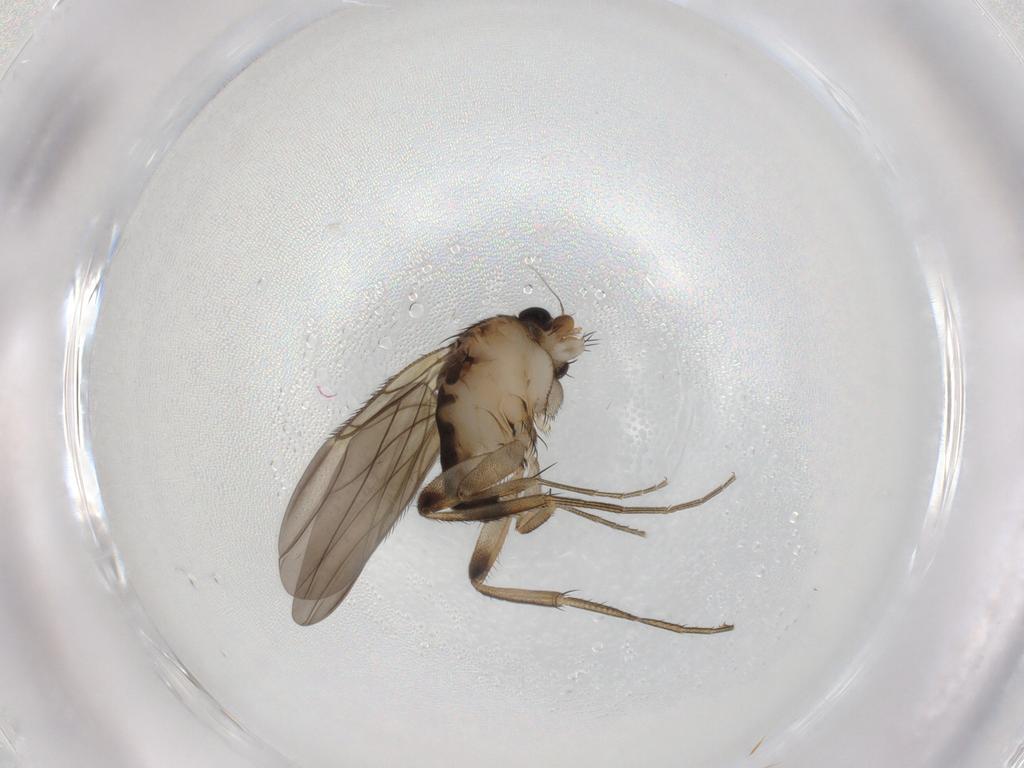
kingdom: Animalia
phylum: Arthropoda
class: Insecta
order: Diptera
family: Phoridae
